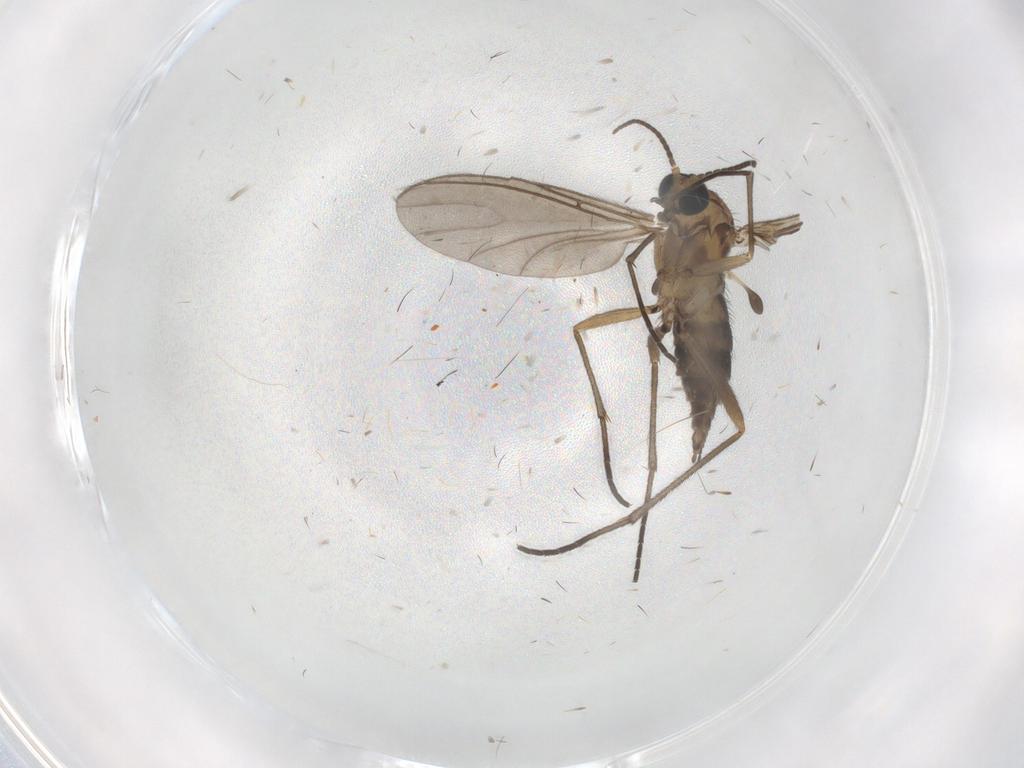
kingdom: Animalia
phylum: Arthropoda
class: Insecta
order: Diptera
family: Sciaridae
